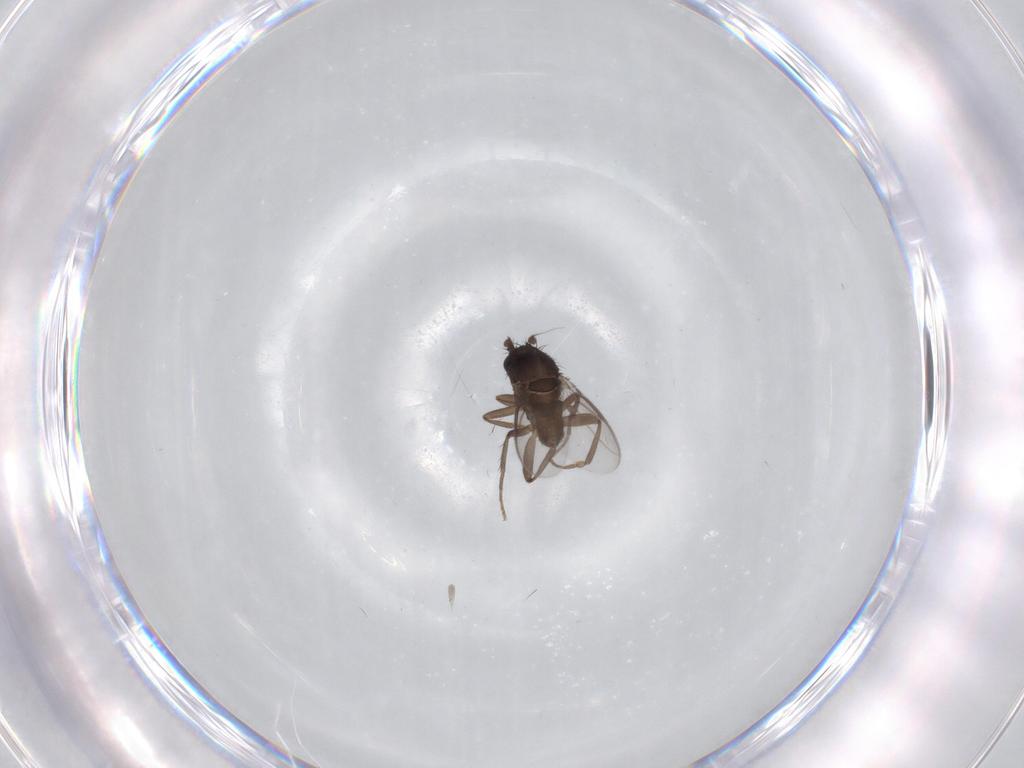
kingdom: Animalia
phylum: Arthropoda
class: Insecta
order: Diptera
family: Sphaeroceridae
